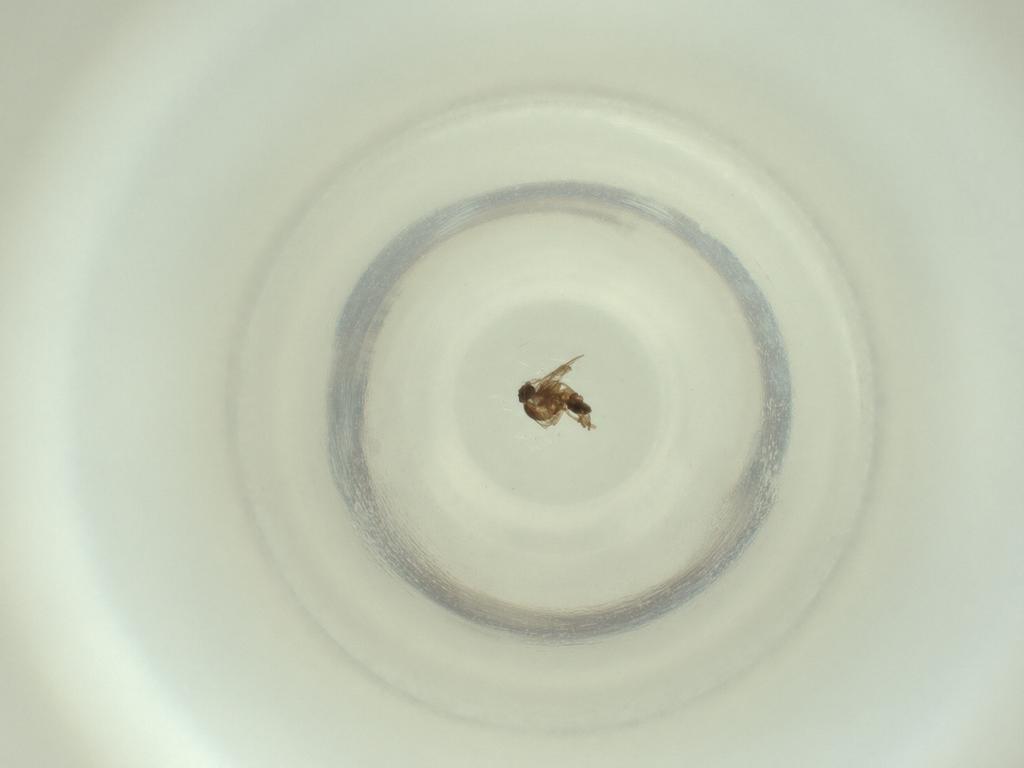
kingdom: Animalia
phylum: Arthropoda
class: Insecta
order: Diptera
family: Cecidomyiidae
